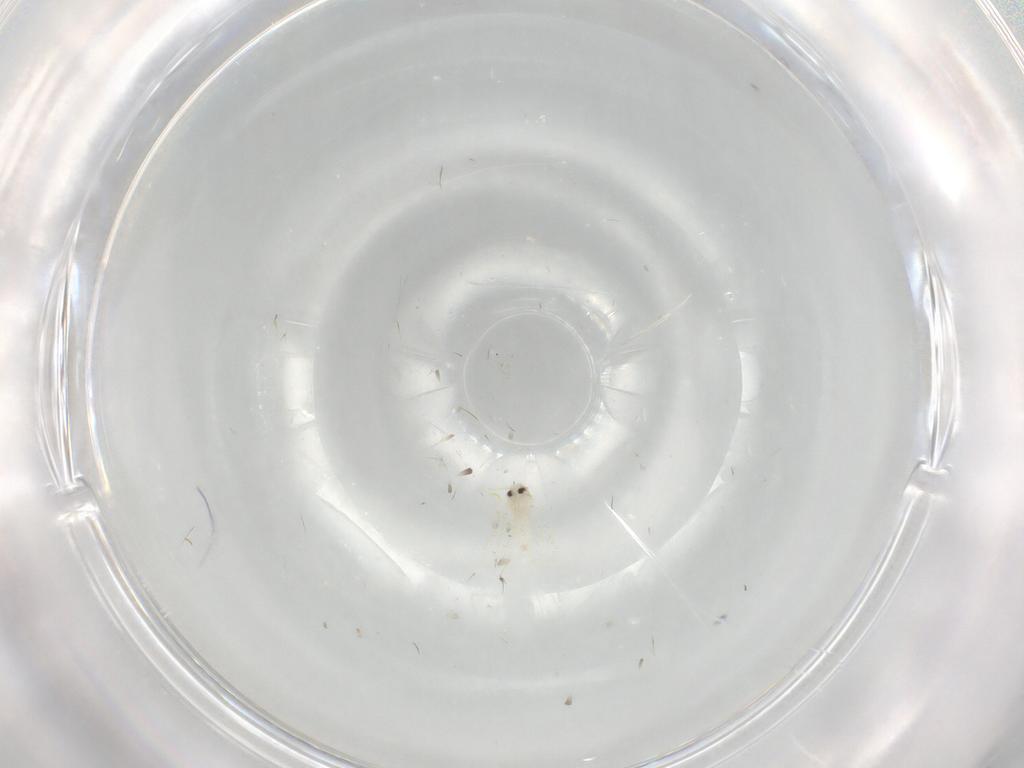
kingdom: Animalia
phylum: Arthropoda
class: Insecta
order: Hemiptera
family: Aleyrodidae
